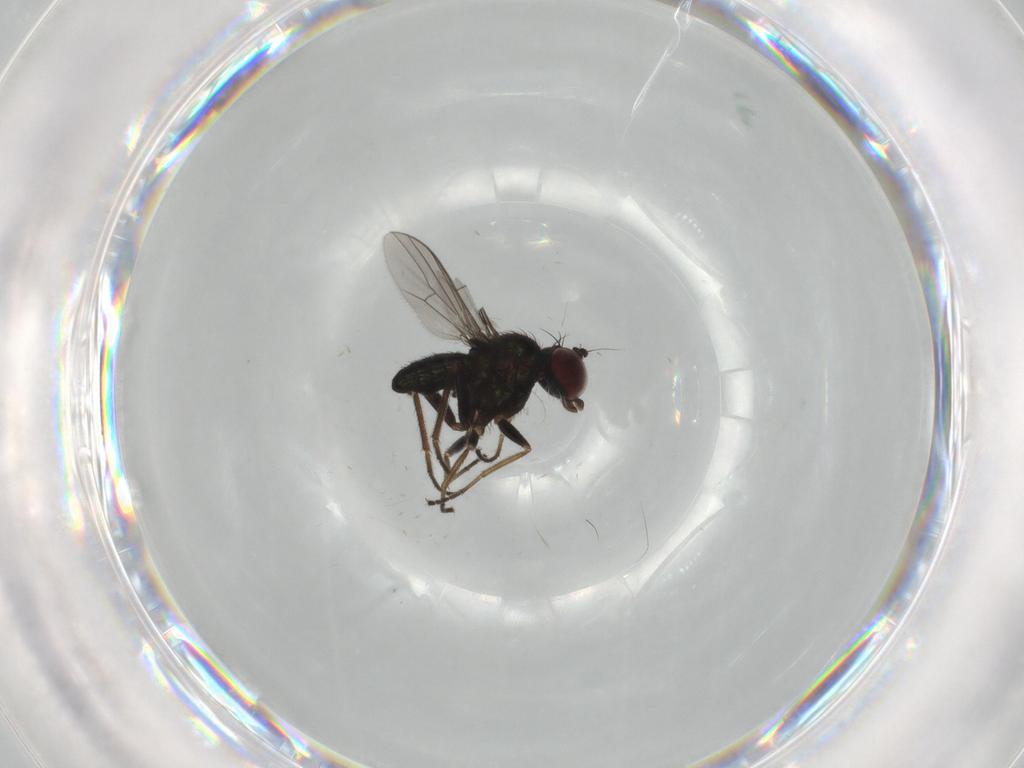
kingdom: Animalia
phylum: Arthropoda
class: Insecta
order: Diptera
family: Dolichopodidae
